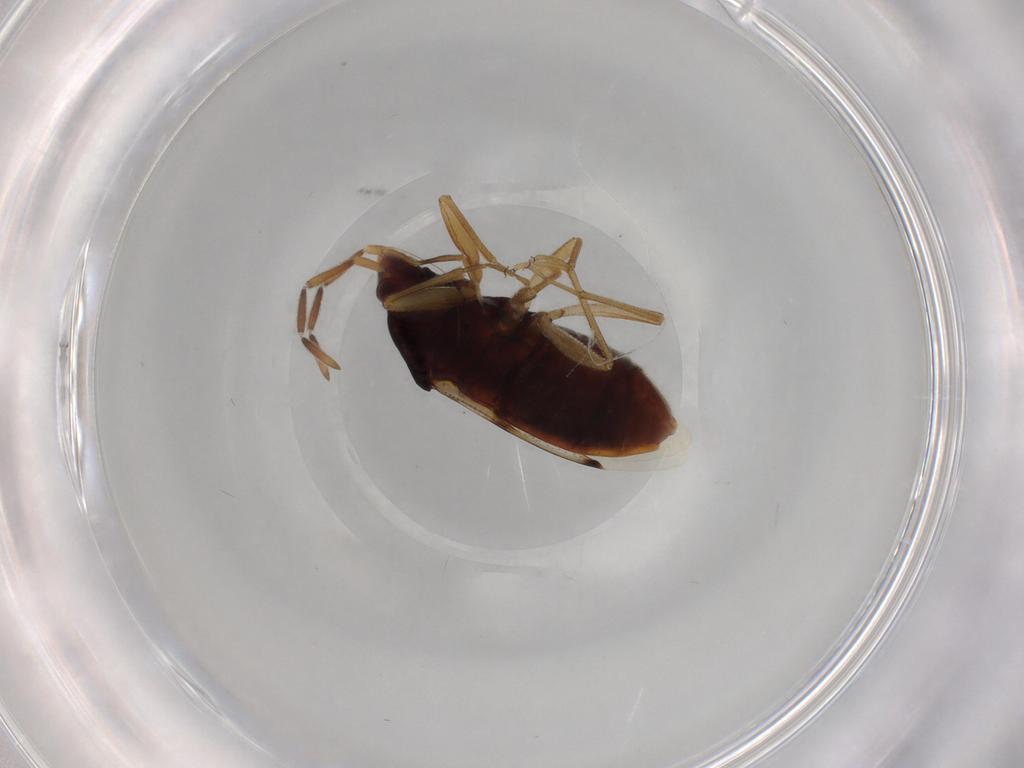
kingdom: Animalia
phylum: Arthropoda
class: Insecta
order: Hemiptera
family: Rhyparochromidae
